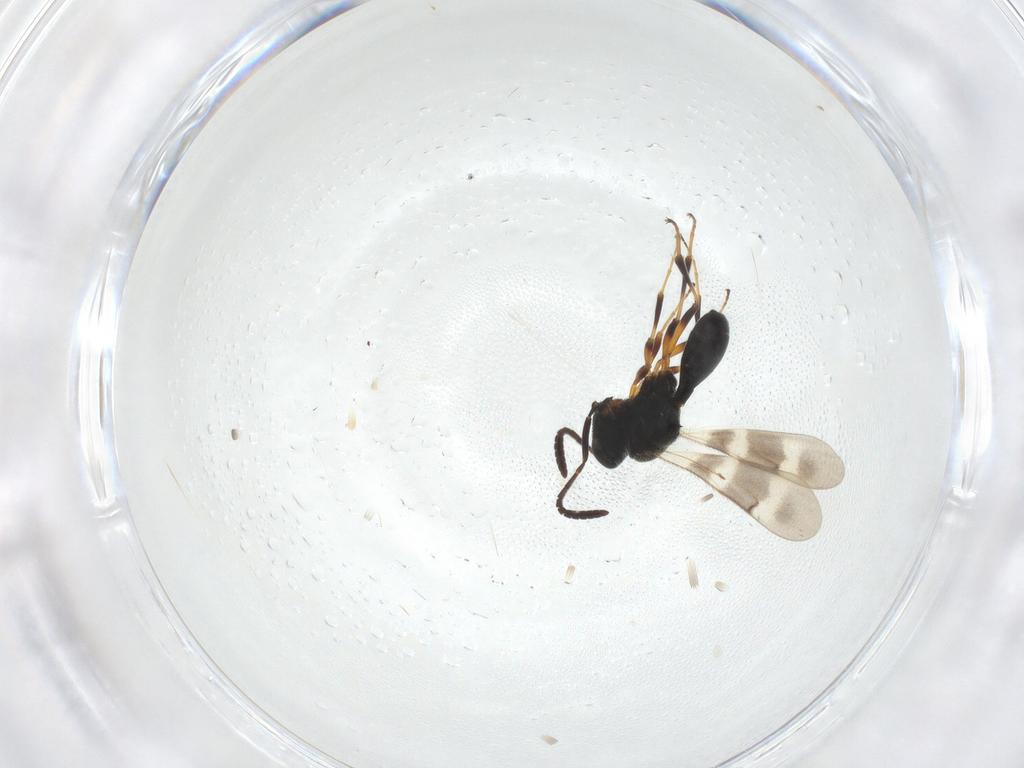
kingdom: Animalia
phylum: Arthropoda
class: Insecta
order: Hymenoptera
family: Scelionidae
